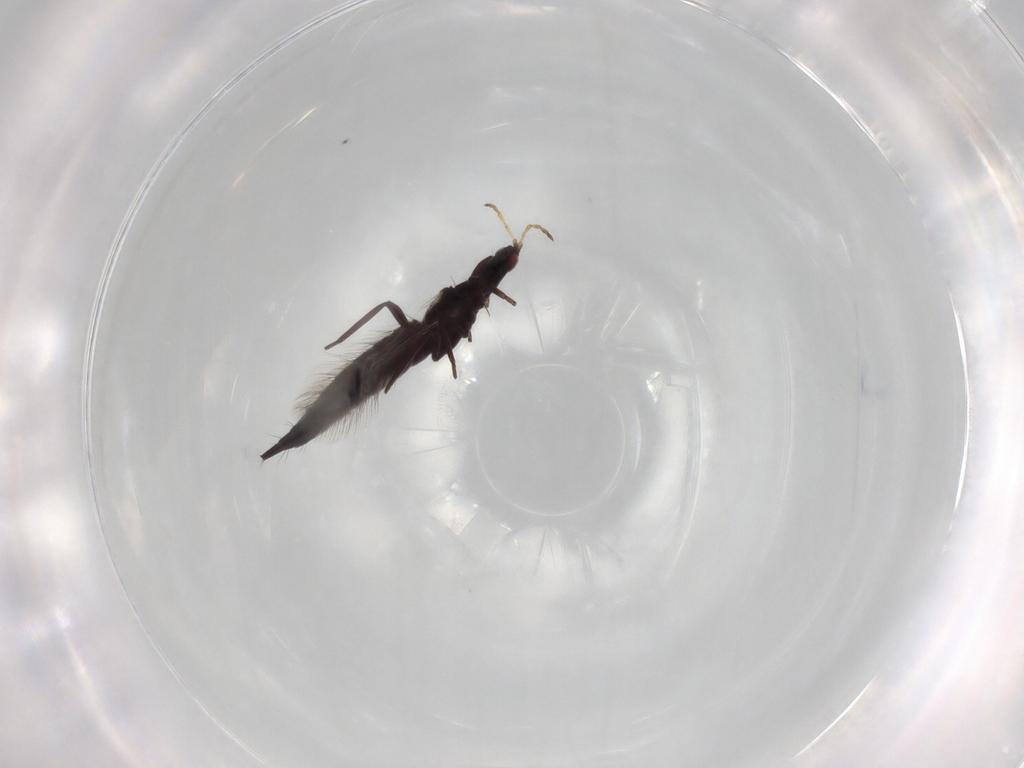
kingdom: Animalia
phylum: Arthropoda
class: Insecta
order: Thysanoptera
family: Phlaeothripidae
